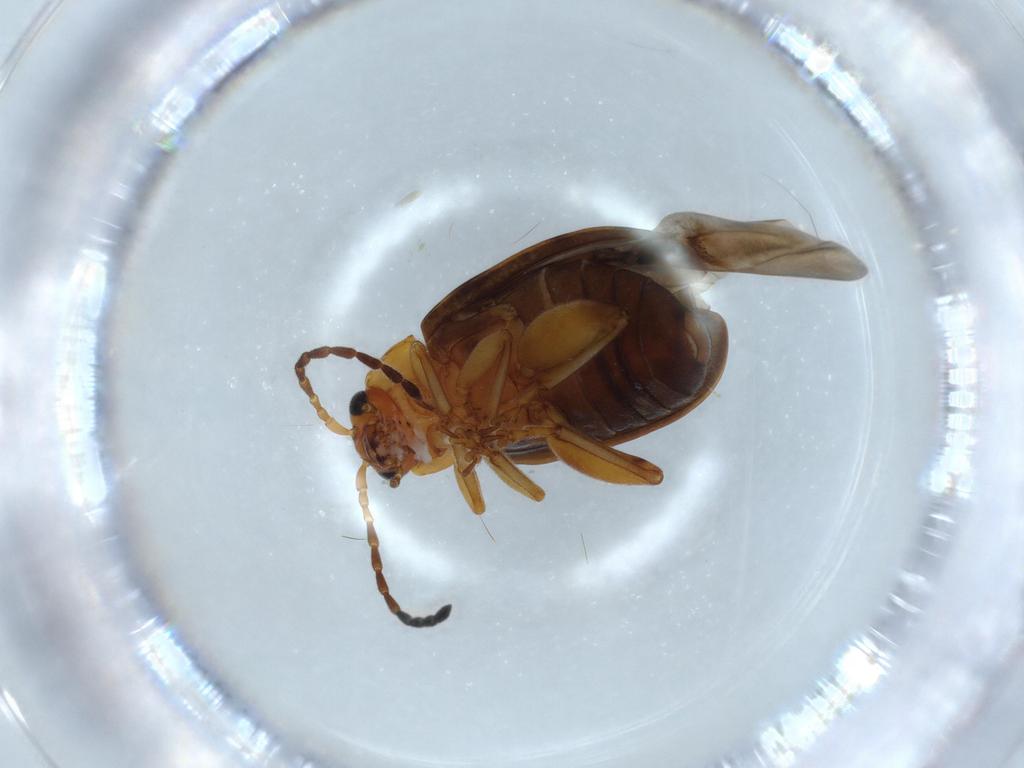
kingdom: Animalia
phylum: Arthropoda
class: Insecta
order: Coleoptera
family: Chrysomelidae
